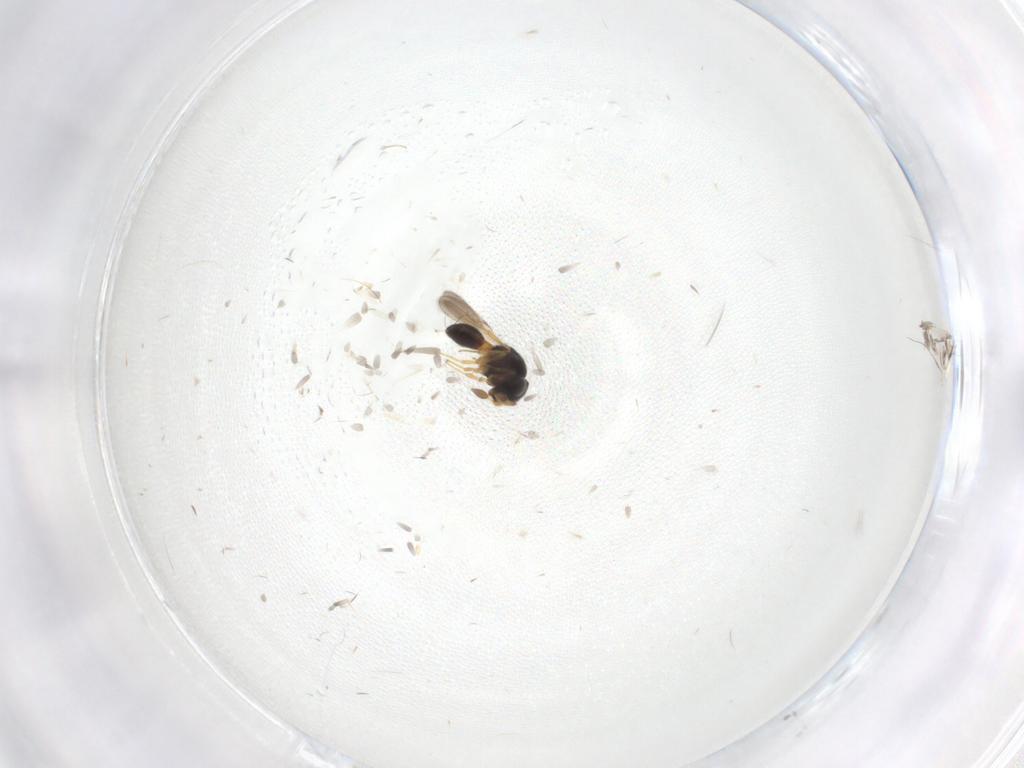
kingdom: Animalia
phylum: Arthropoda
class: Insecta
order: Hymenoptera
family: Scelionidae
